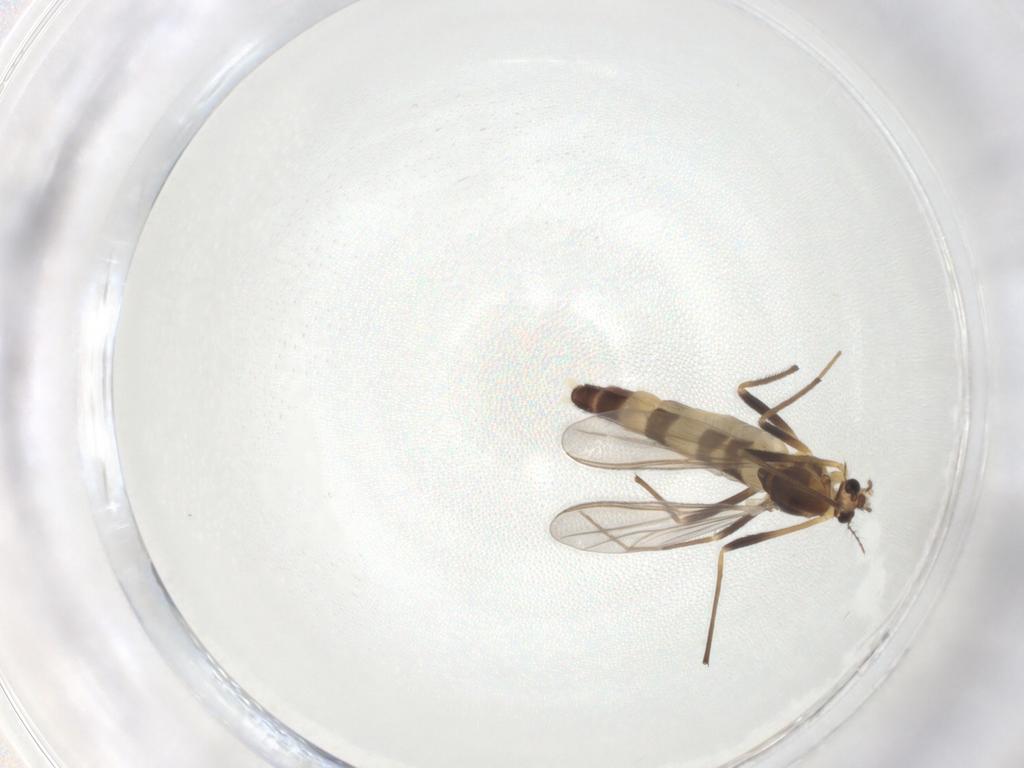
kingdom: Animalia
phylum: Arthropoda
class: Insecta
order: Diptera
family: Chironomidae
